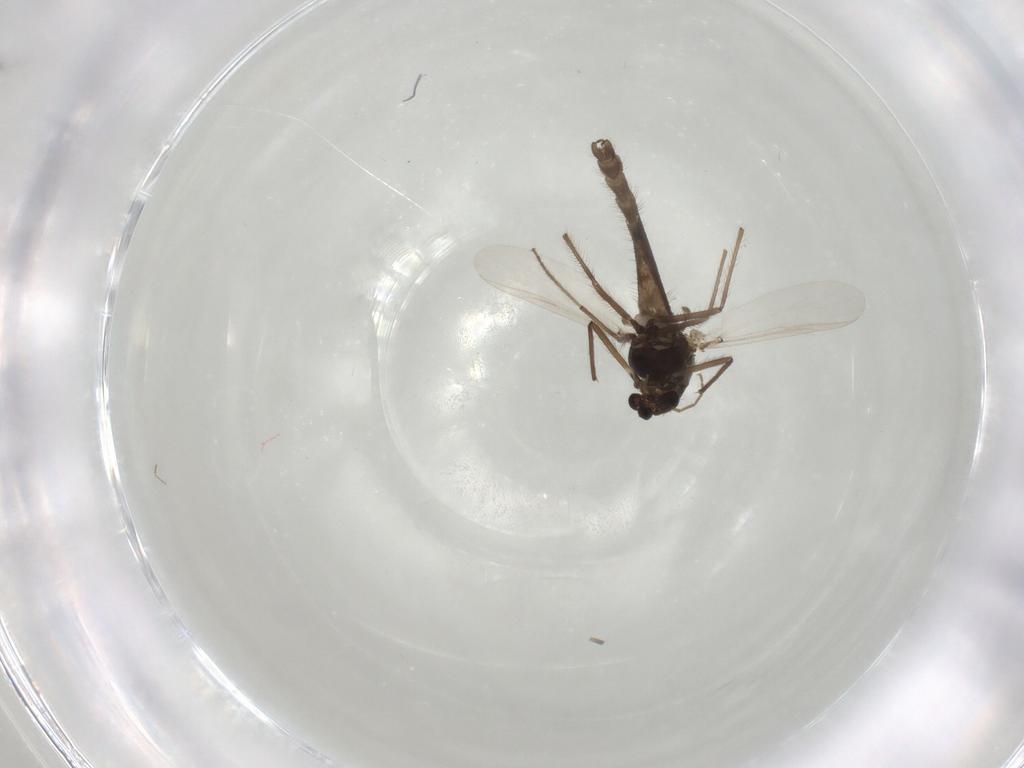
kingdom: Animalia
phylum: Arthropoda
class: Insecta
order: Diptera
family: Chironomidae
